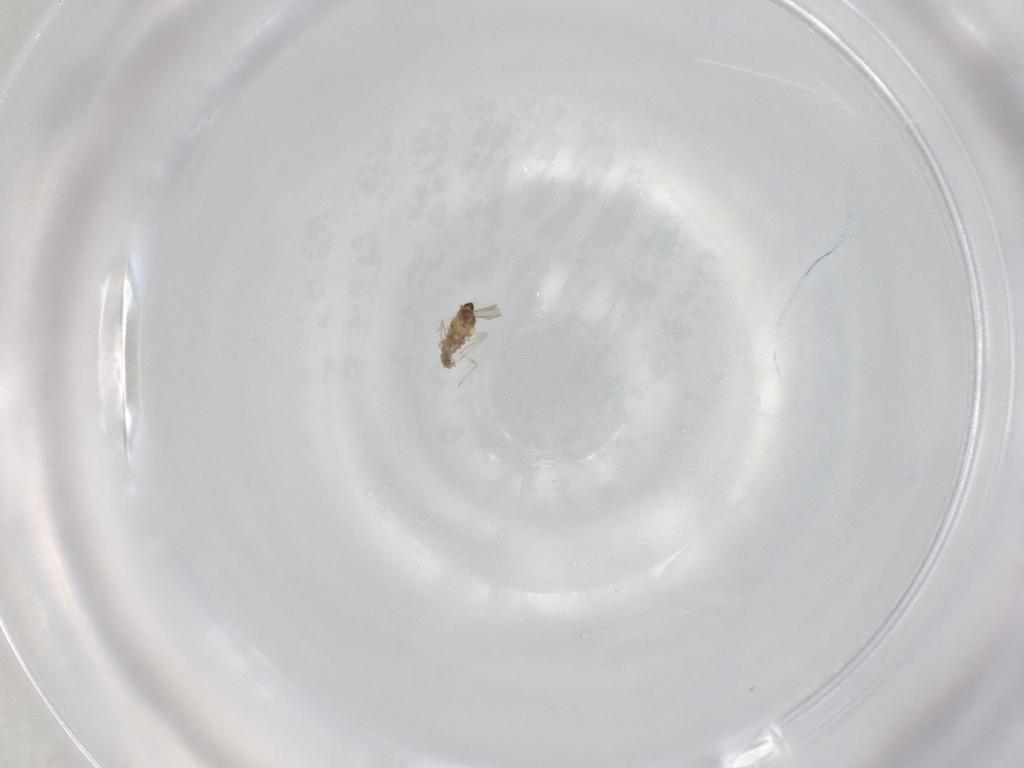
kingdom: Animalia
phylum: Arthropoda
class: Insecta
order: Diptera
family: Cecidomyiidae
